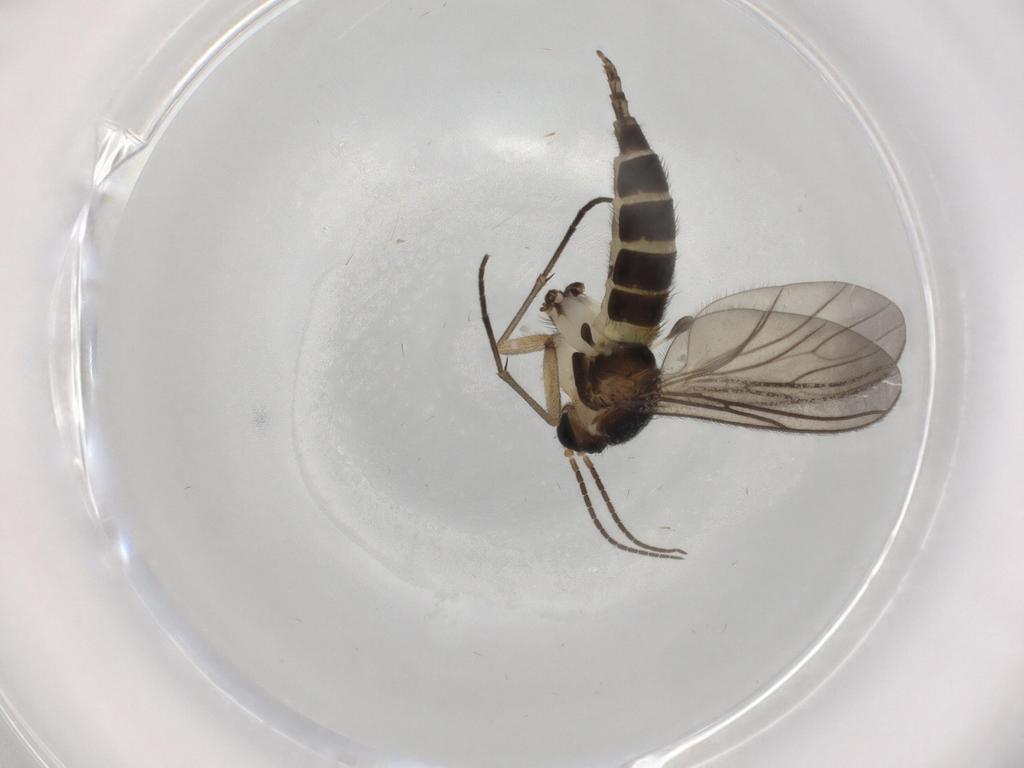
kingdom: Animalia
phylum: Arthropoda
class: Insecta
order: Diptera
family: Sciaridae
